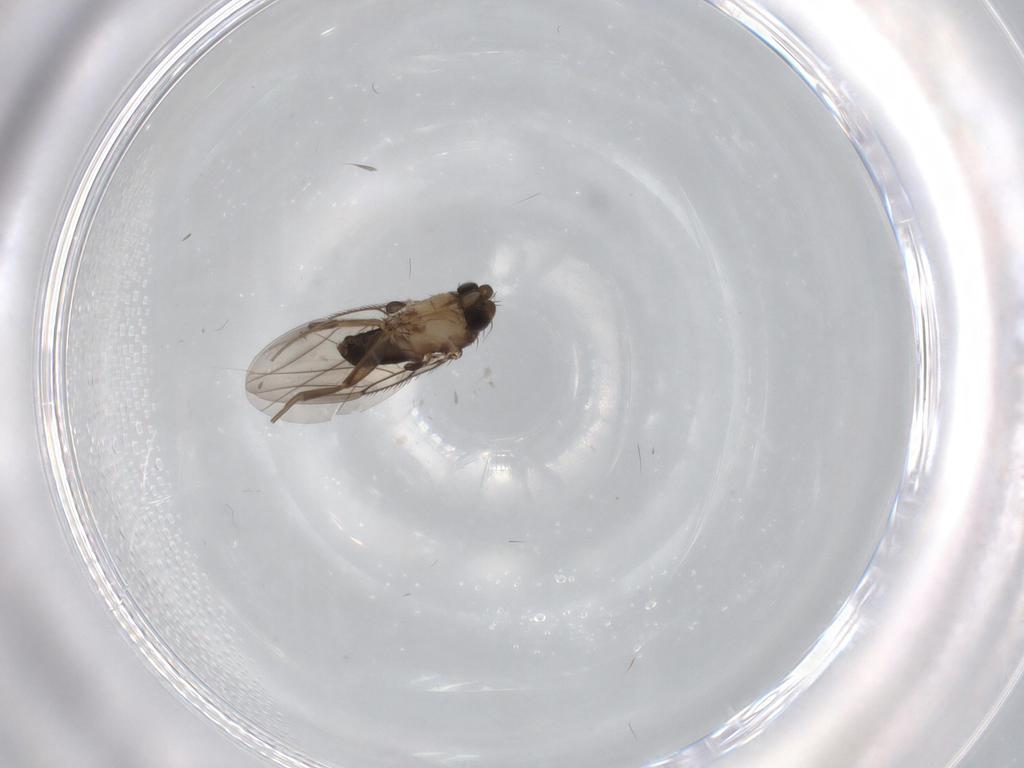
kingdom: Animalia
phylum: Arthropoda
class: Insecta
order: Diptera
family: Phoridae
